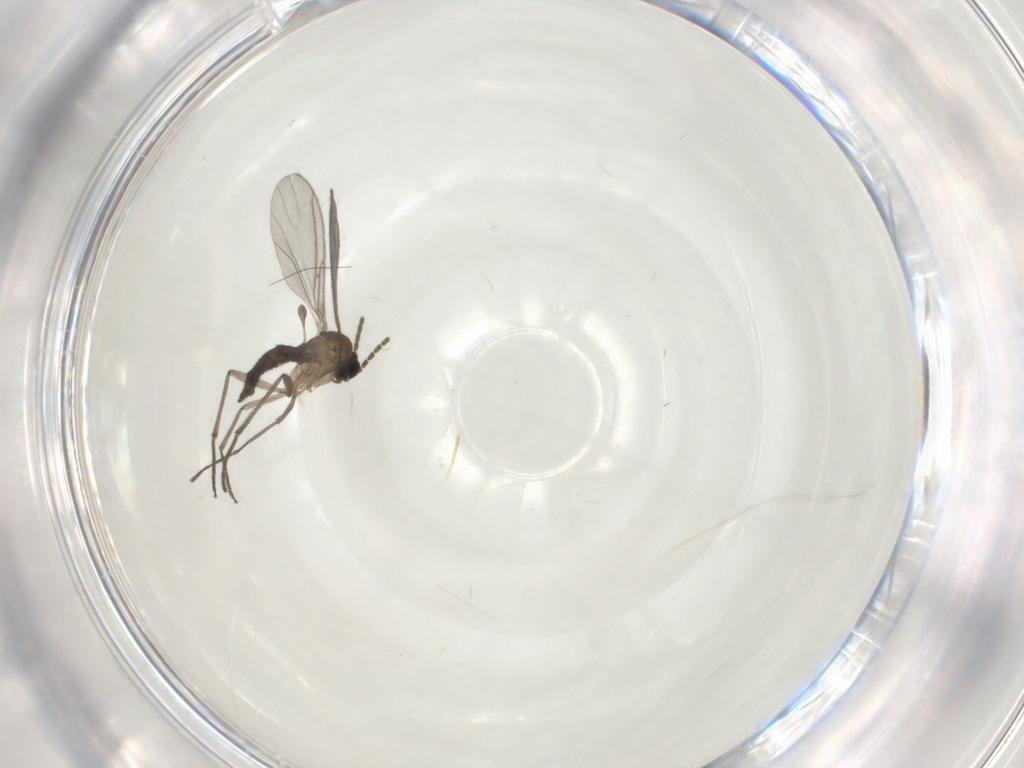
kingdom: Animalia
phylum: Arthropoda
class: Insecta
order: Diptera
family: Sciaridae
